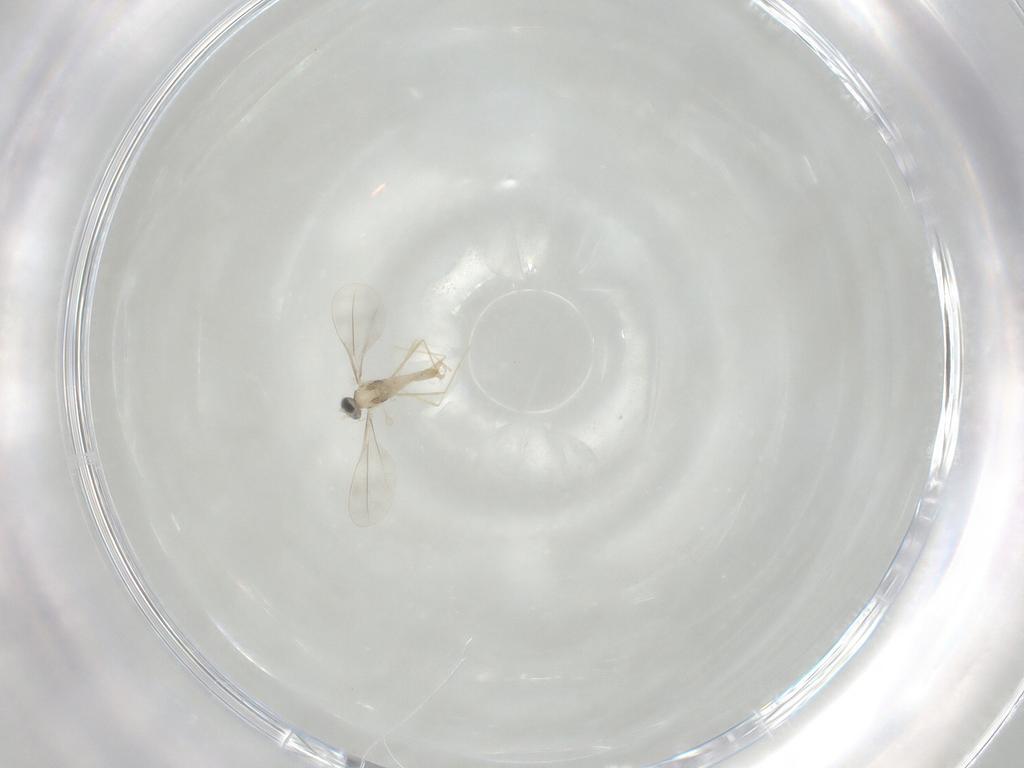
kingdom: Animalia
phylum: Arthropoda
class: Insecta
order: Diptera
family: Cecidomyiidae
